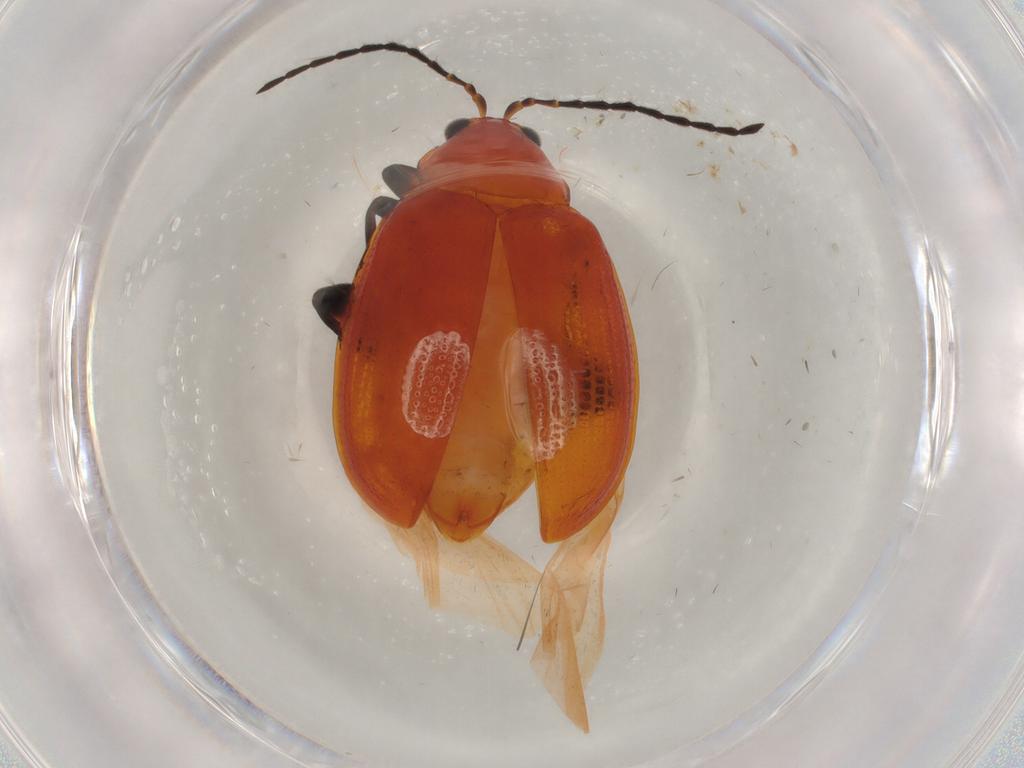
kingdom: Animalia
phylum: Arthropoda
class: Insecta
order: Coleoptera
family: Chrysomelidae
